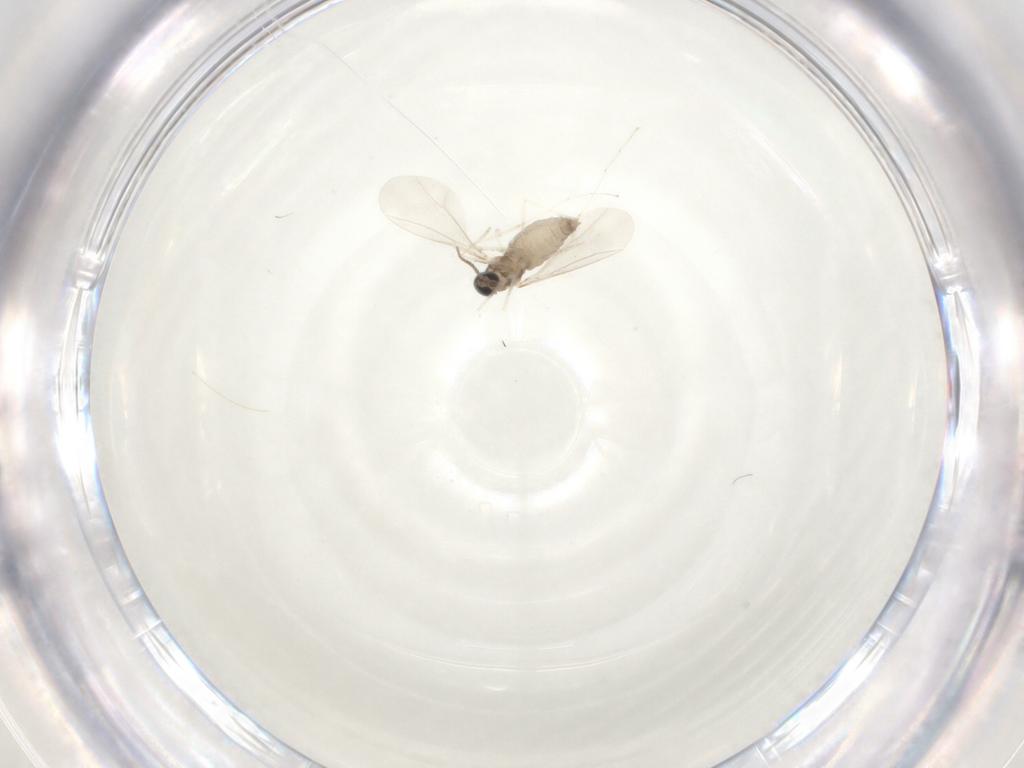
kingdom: Animalia
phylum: Arthropoda
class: Insecta
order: Diptera
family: Cecidomyiidae
